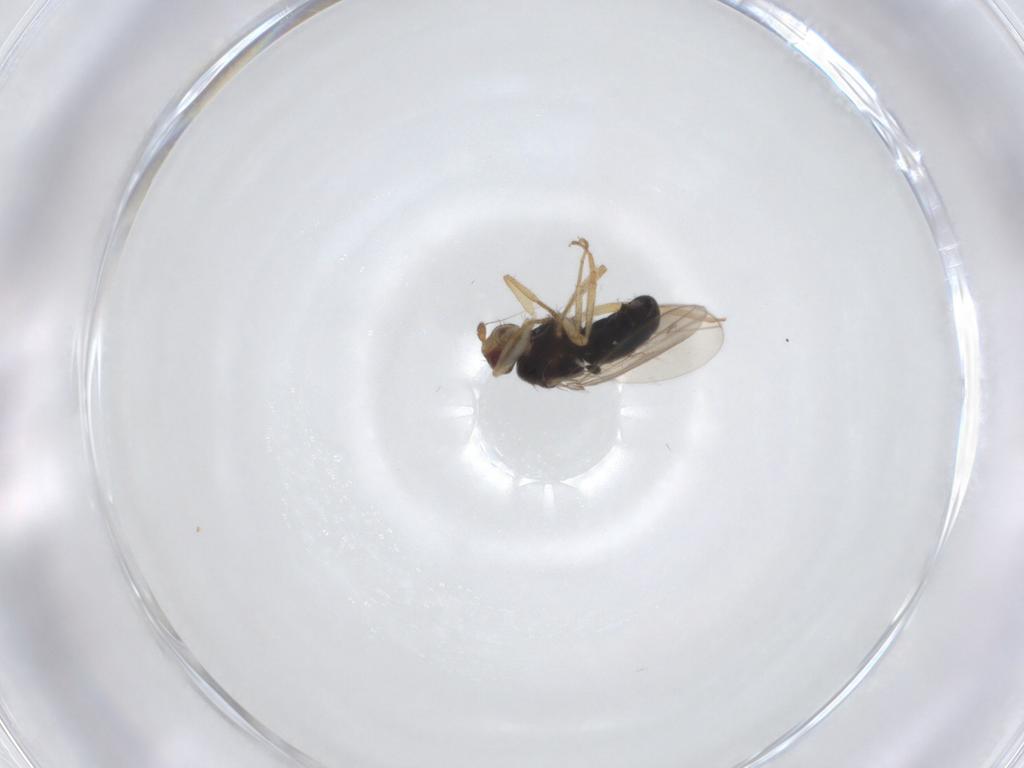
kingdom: Animalia
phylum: Arthropoda
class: Insecta
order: Diptera
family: Sphaeroceridae
